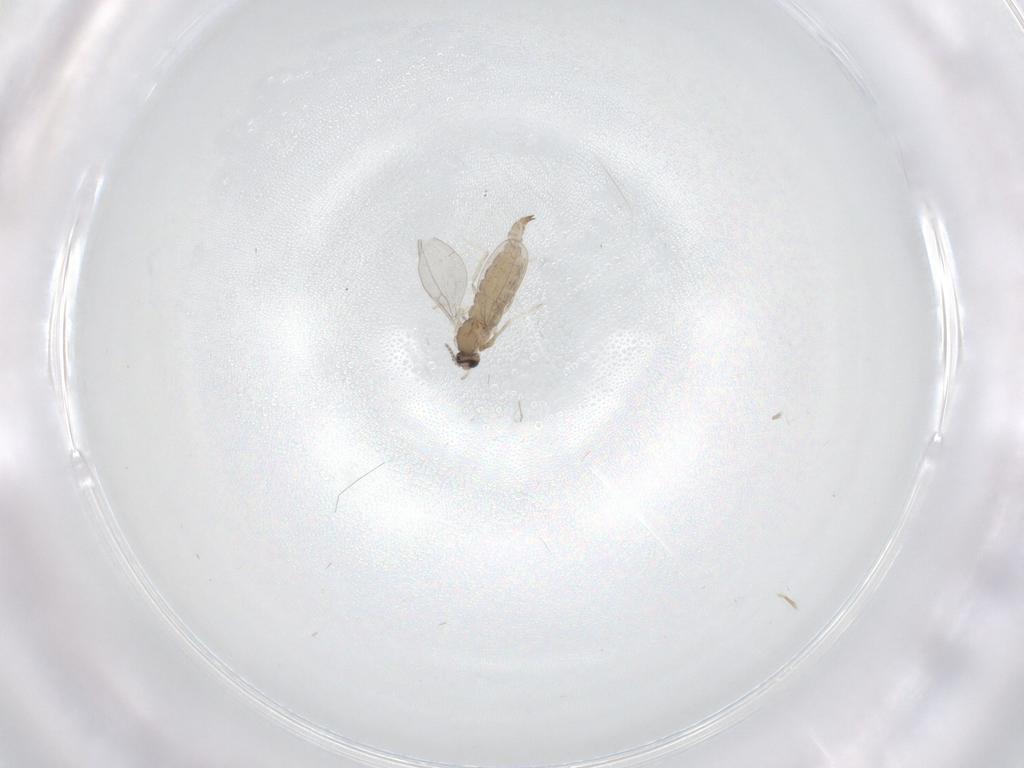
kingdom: Animalia
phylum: Arthropoda
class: Insecta
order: Diptera
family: Cecidomyiidae
